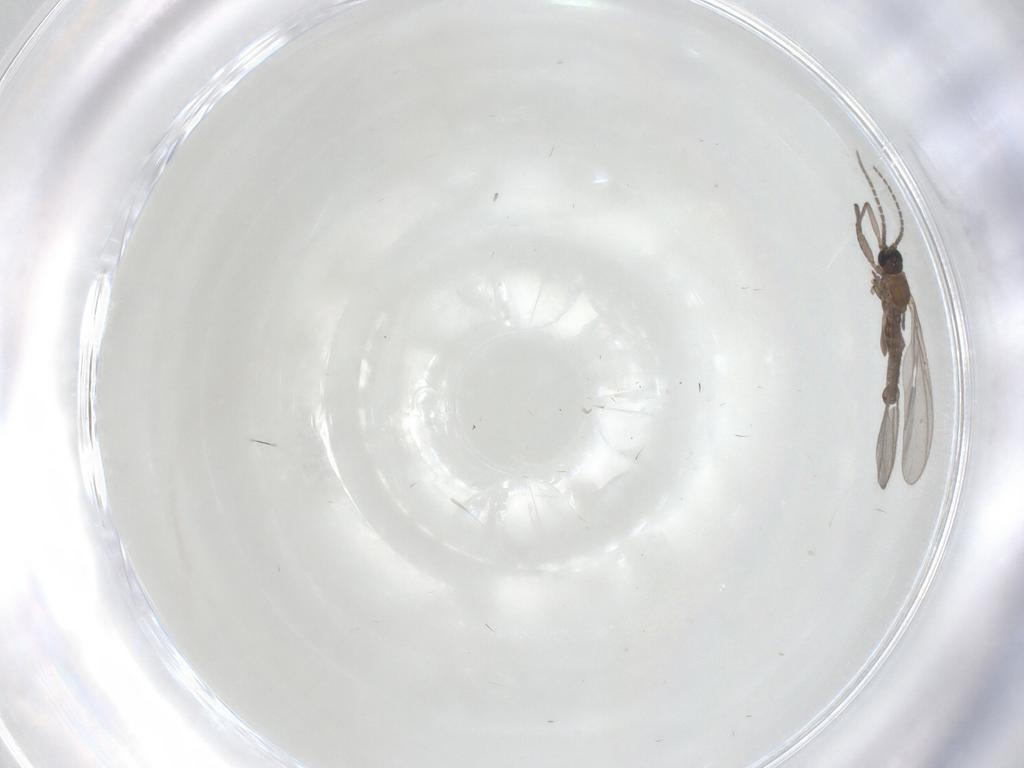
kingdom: Animalia
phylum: Arthropoda
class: Insecta
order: Diptera
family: Sciaridae
